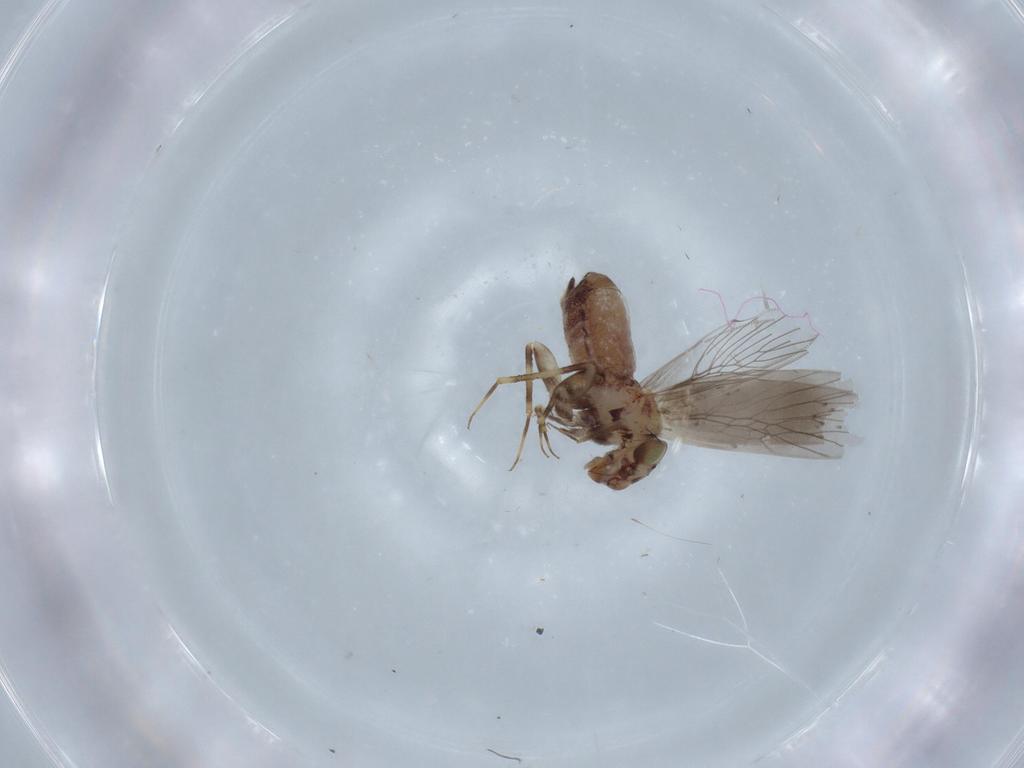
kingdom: Animalia
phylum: Arthropoda
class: Insecta
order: Psocodea
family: Lepidopsocidae
